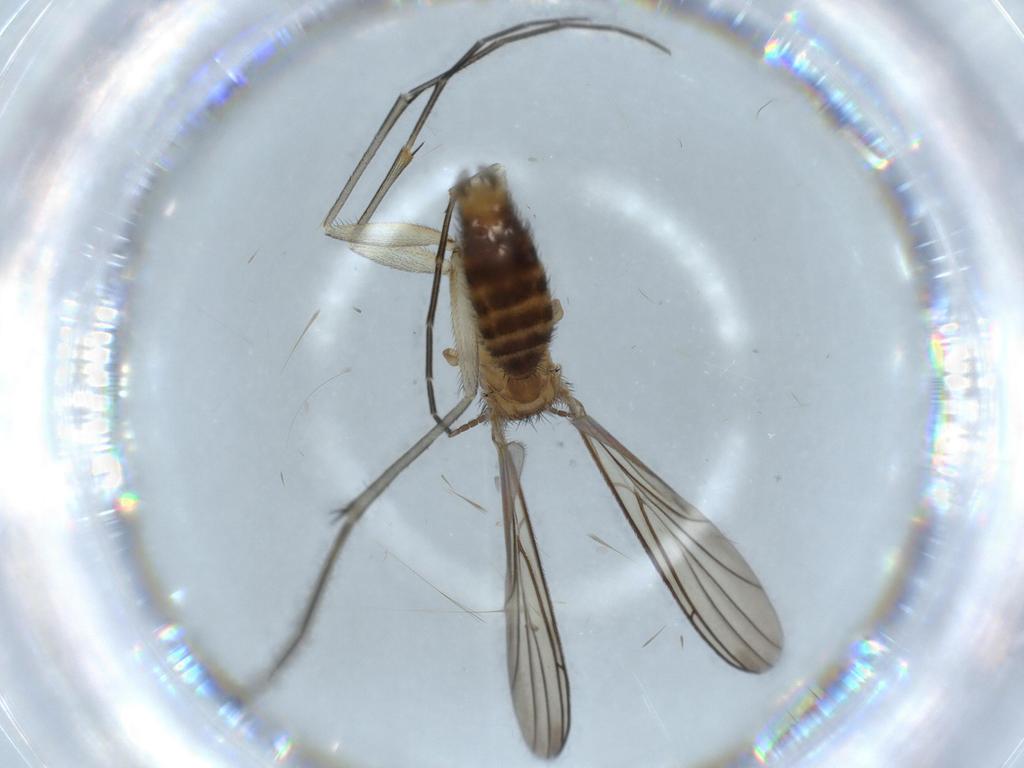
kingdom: Animalia
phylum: Arthropoda
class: Insecta
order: Diptera
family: Keroplatidae
